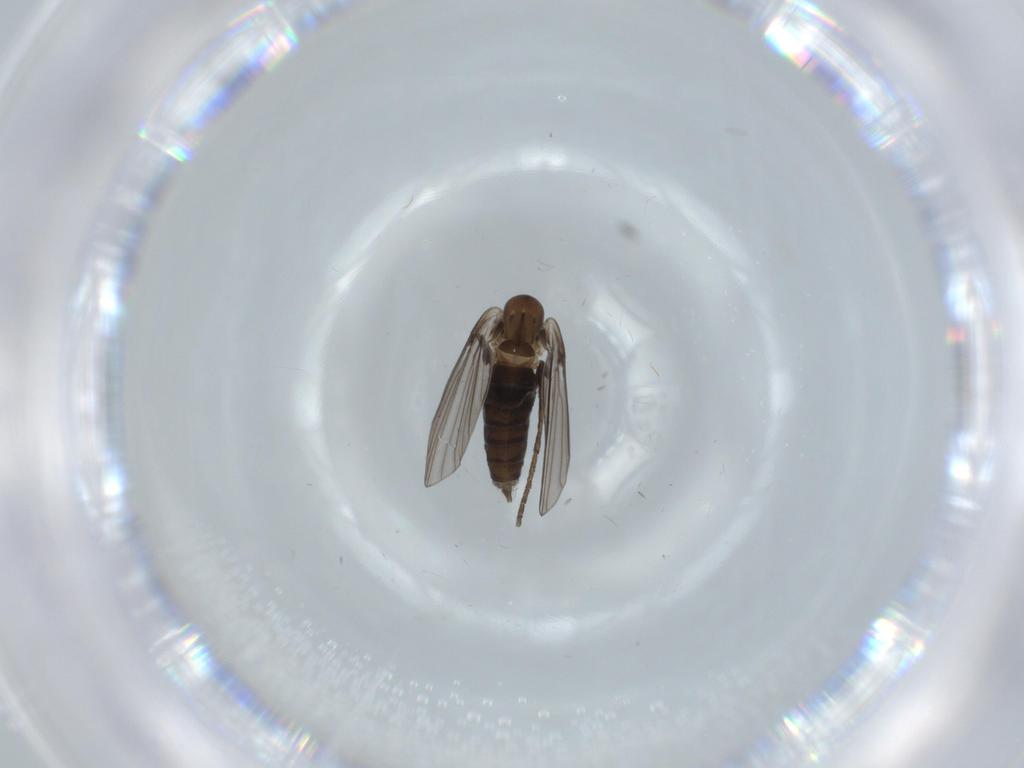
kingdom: Animalia
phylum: Arthropoda
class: Insecta
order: Diptera
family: Psychodidae
